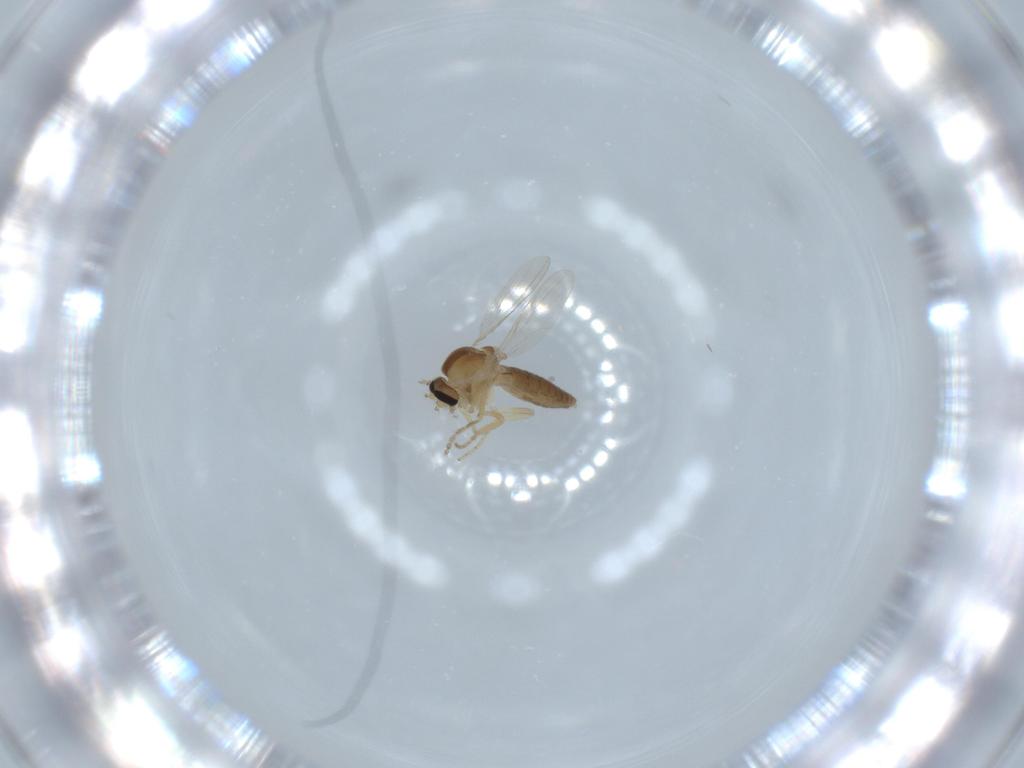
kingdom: Animalia
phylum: Arthropoda
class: Insecta
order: Diptera
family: Ceratopogonidae
